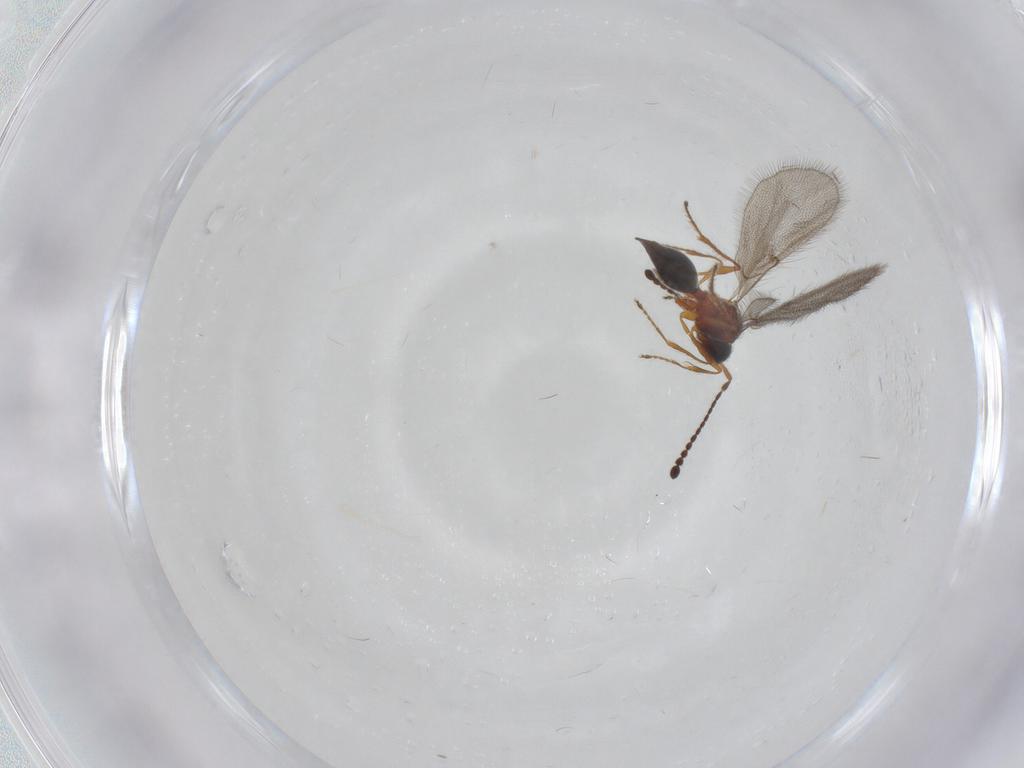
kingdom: Animalia
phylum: Arthropoda
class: Insecta
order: Hymenoptera
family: Diapriidae
